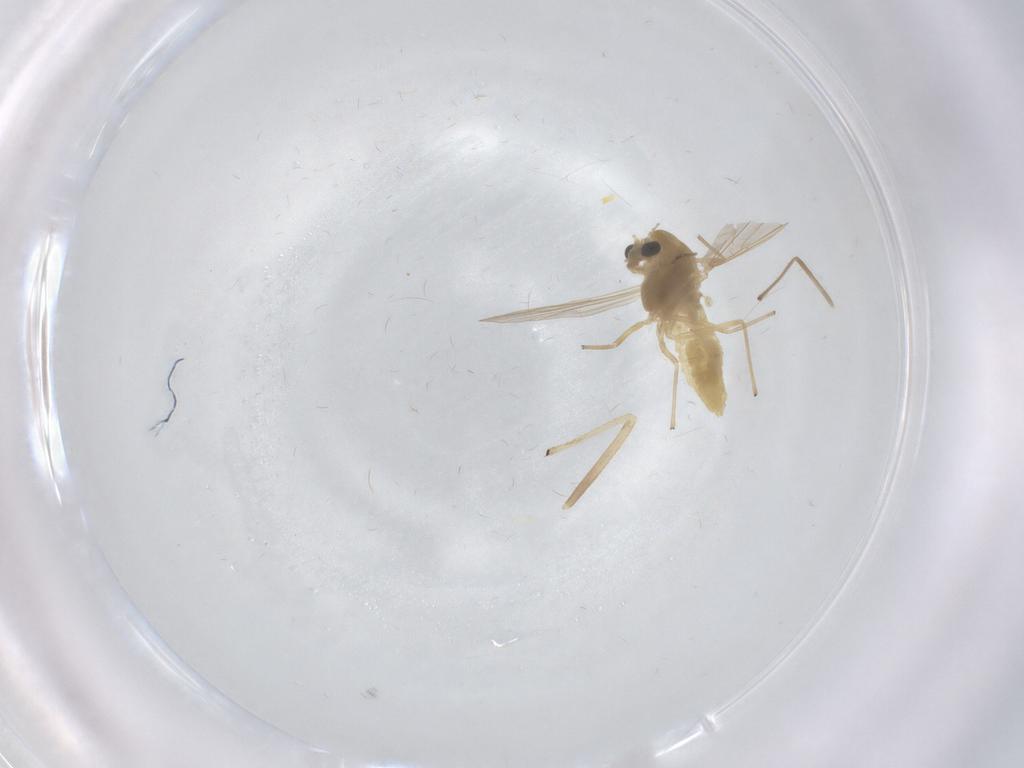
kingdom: Animalia
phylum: Arthropoda
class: Insecta
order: Diptera
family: Chironomidae
